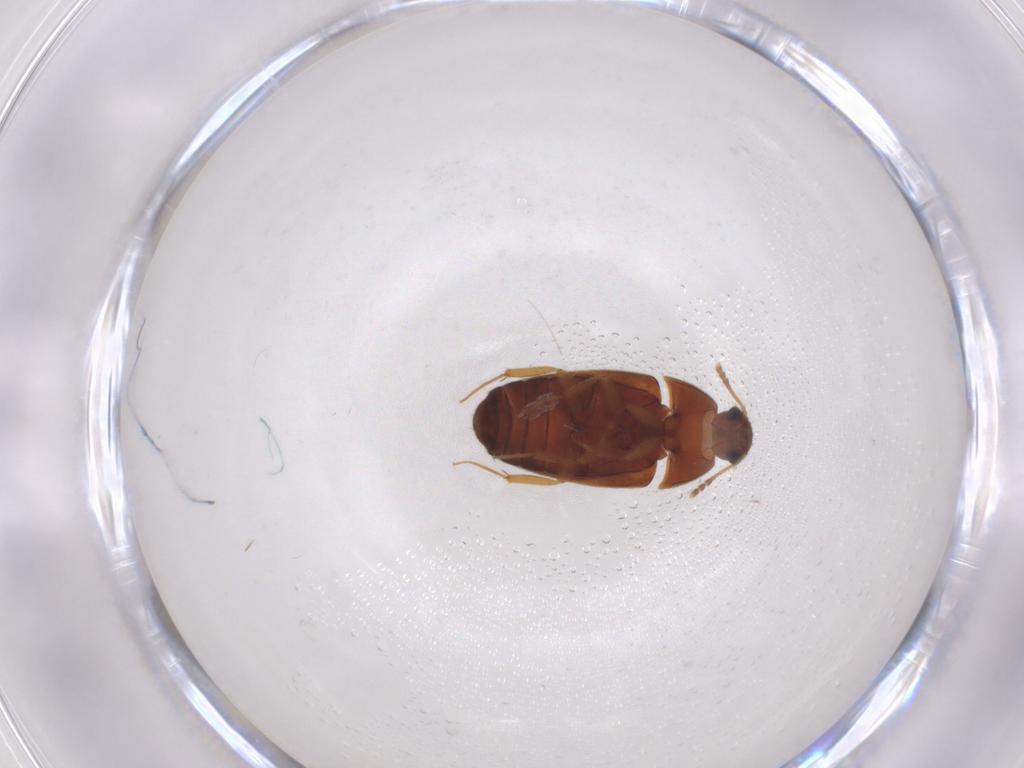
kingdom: Animalia
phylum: Arthropoda
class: Insecta
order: Coleoptera
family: Mycetophagidae
